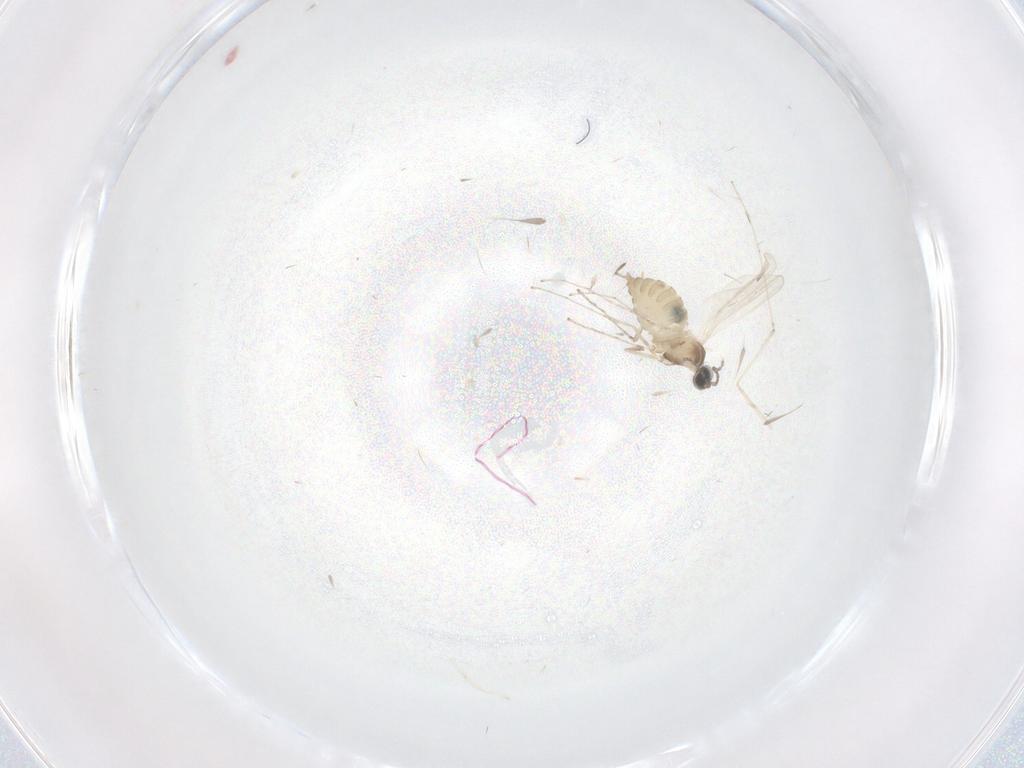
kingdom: Animalia
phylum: Arthropoda
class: Insecta
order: Diptera
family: Cecidomyiidae
